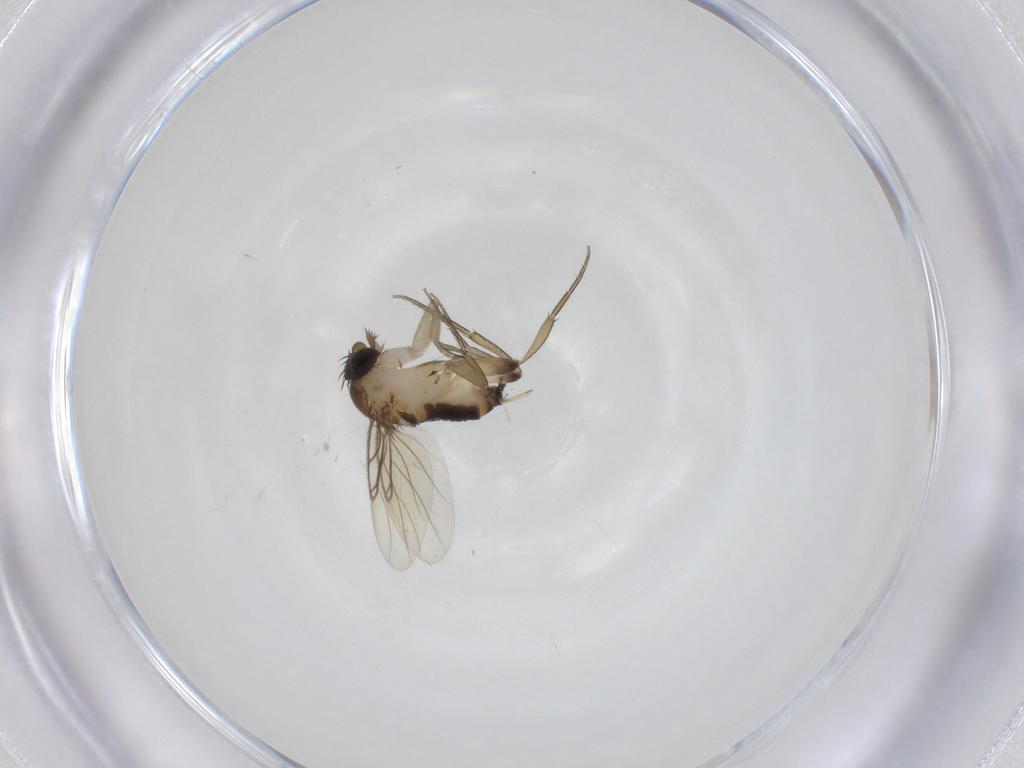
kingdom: Animalia
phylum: Arthropoda
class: Insecta
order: Diptera
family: Phoridae
